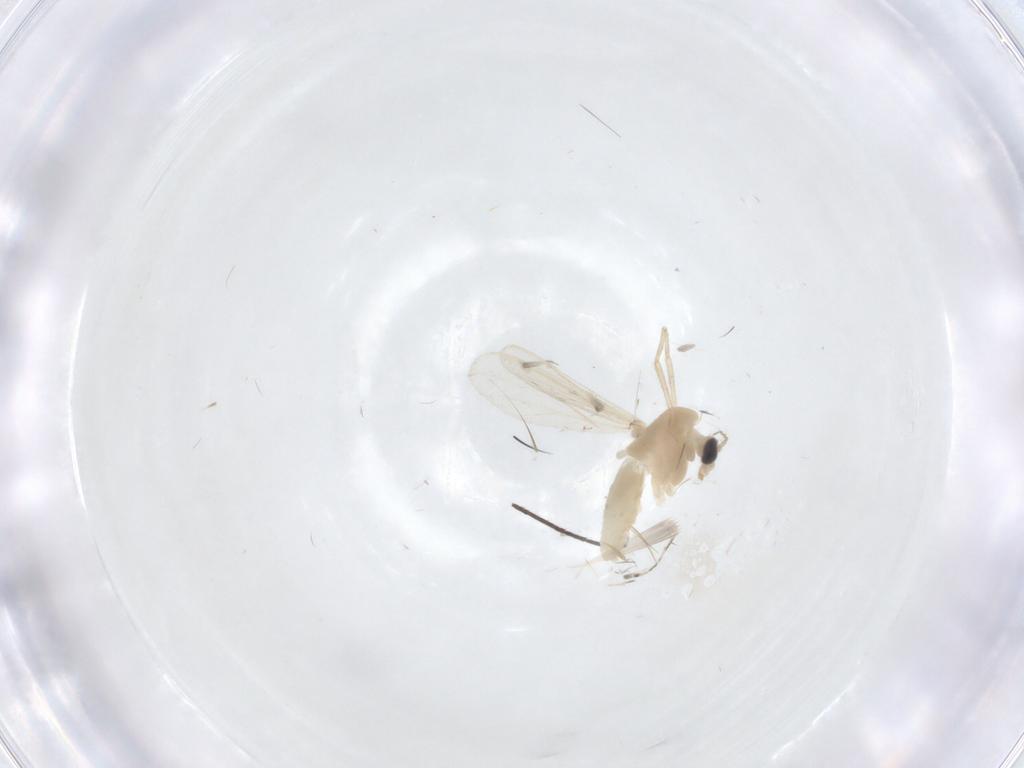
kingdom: Animalia
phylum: Arthropoda
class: Insecta
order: Diptera
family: Chironomidae
